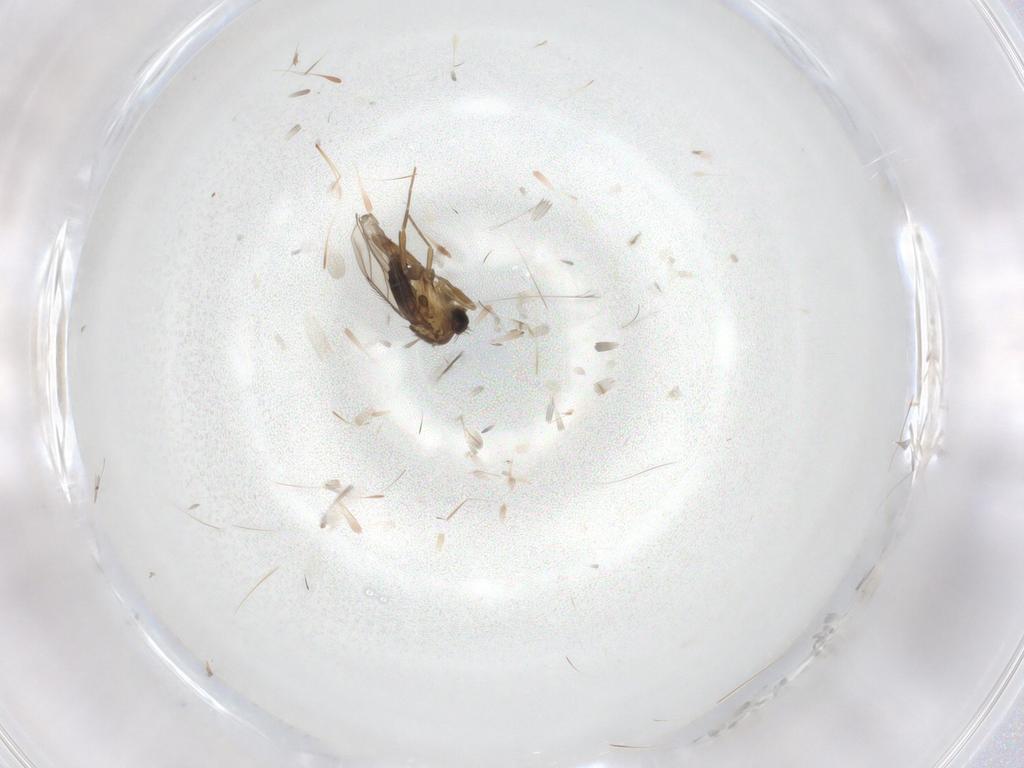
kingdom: Animalia
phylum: Arthropoda
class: Insecta
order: Diptera
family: Phoridae
